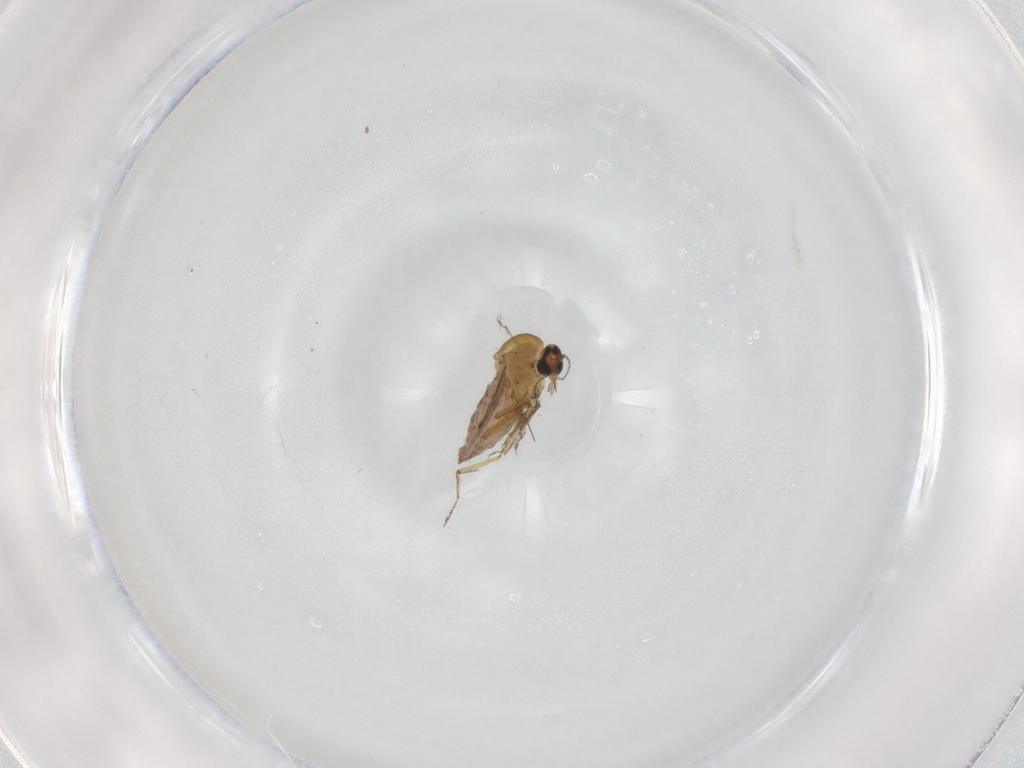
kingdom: Animalia
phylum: Arthropoda
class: Insecta
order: Diptera
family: Ceratopogonidae
